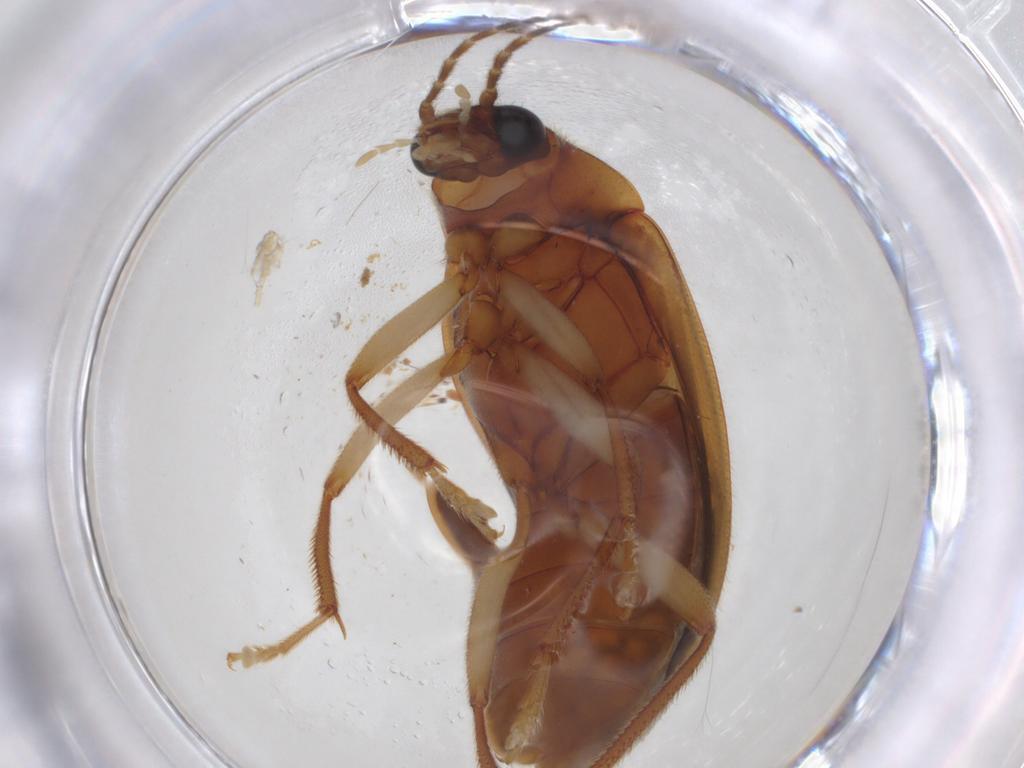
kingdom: Animalia
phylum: Arthropoda
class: Insecta
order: Coleoptera
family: Ptilodactylidae
